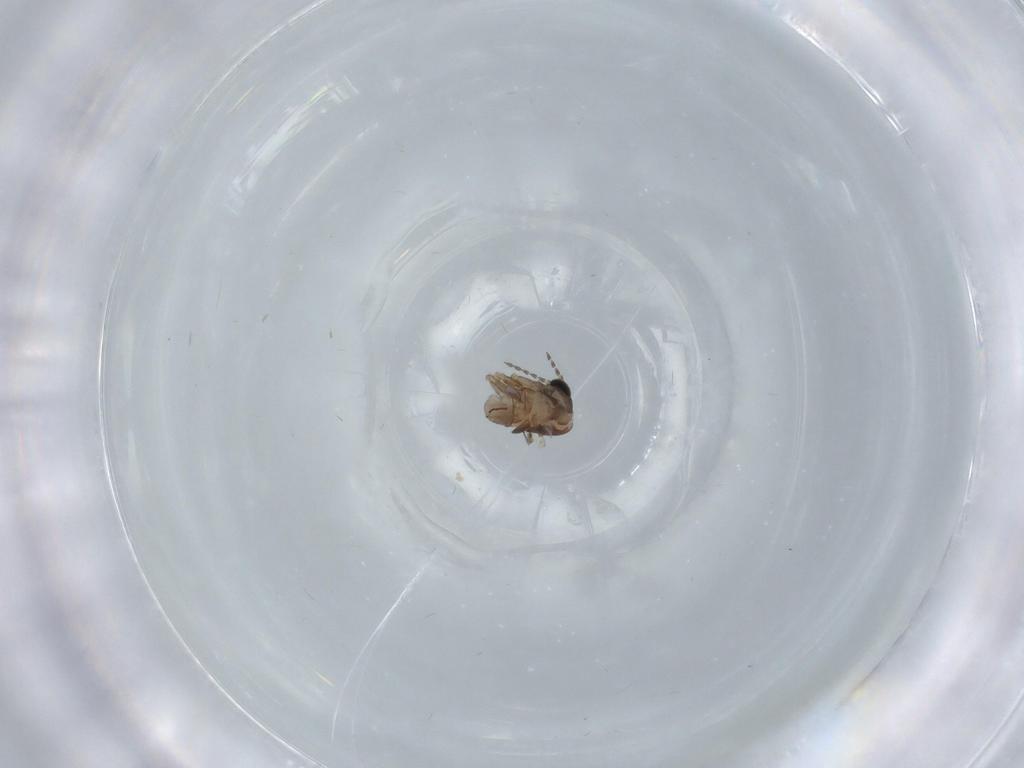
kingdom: Animalia
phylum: Arthropoda
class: Insecta
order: Diptera
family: Psychodidae
